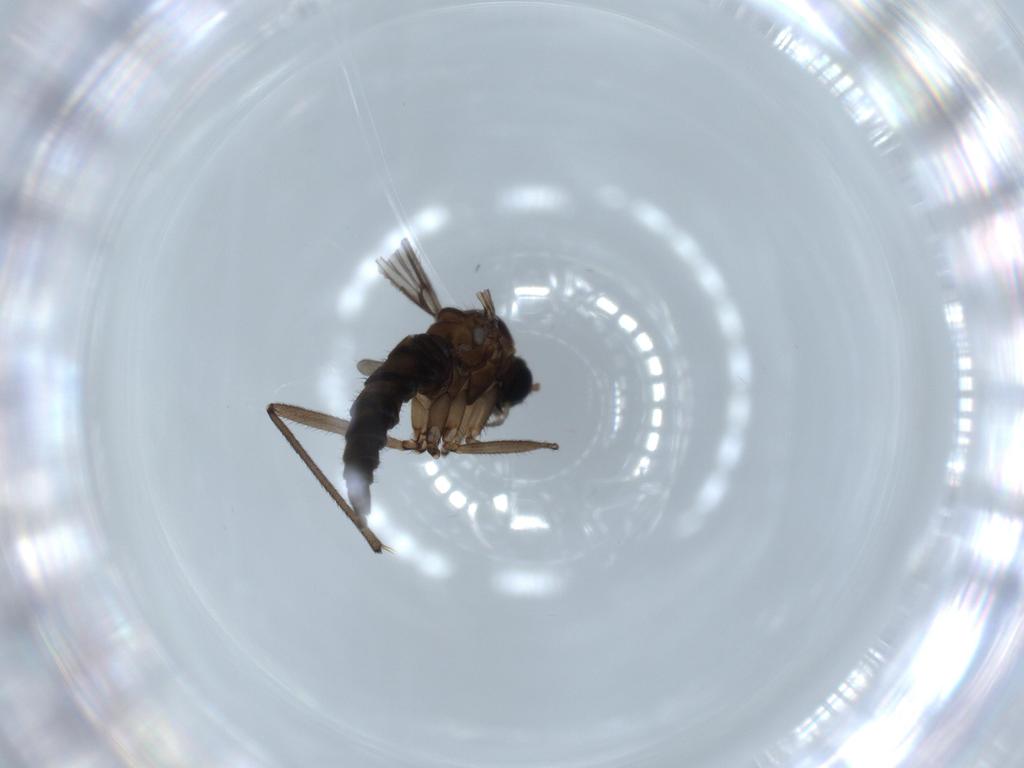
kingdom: Animalia
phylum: Arthropoda
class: Insecta
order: Diptera
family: Sciaridae
